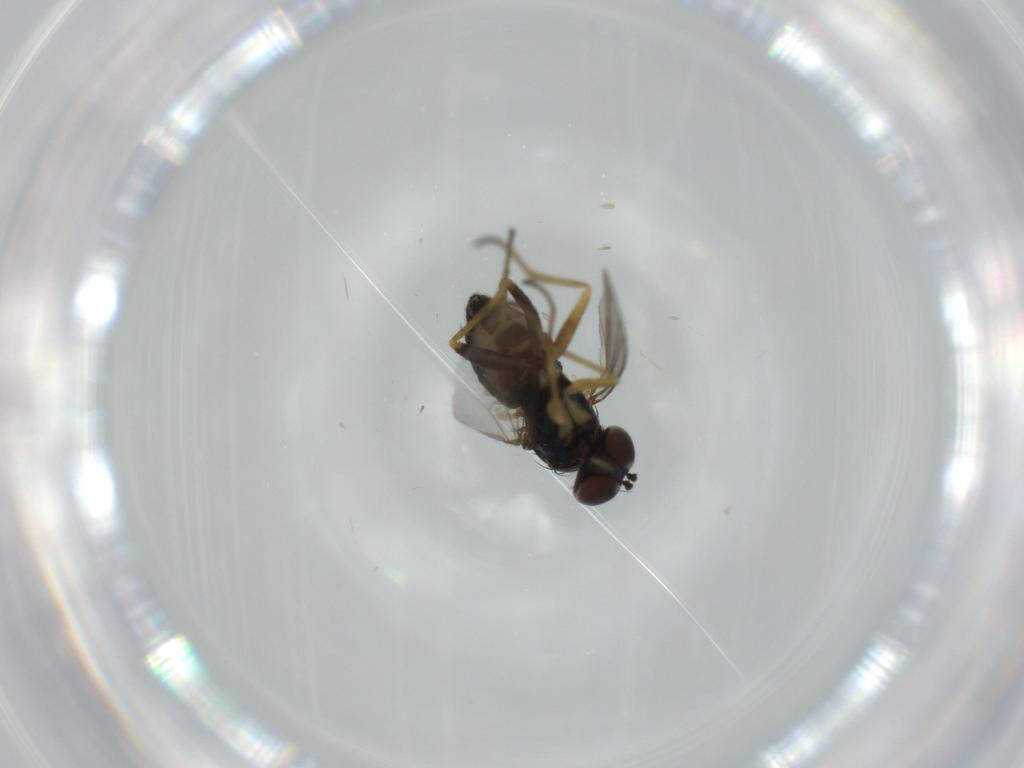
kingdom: Animalia
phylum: Arthropoda
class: Insecta
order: Diptera
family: Dolichopodidae
